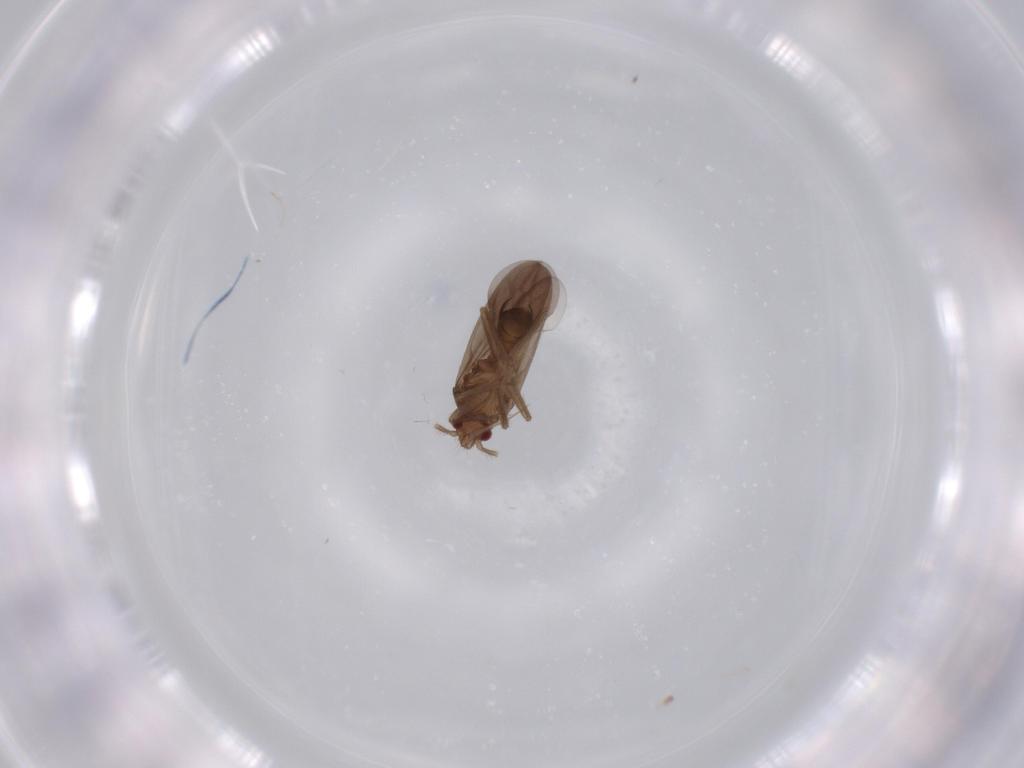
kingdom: Animalia
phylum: Arthropoda
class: Insecta
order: Hemiptera
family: Ceratocombidae
